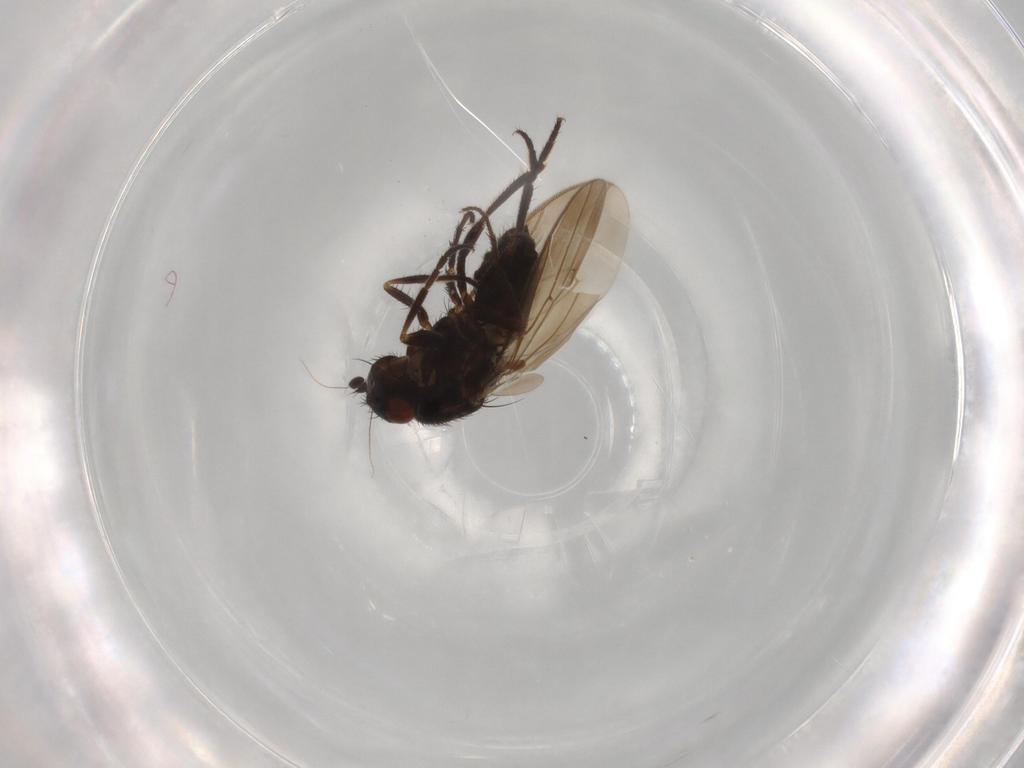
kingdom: Animalia
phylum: Arthropoda
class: Insecta
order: Diptera
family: Sphaeroceridae
